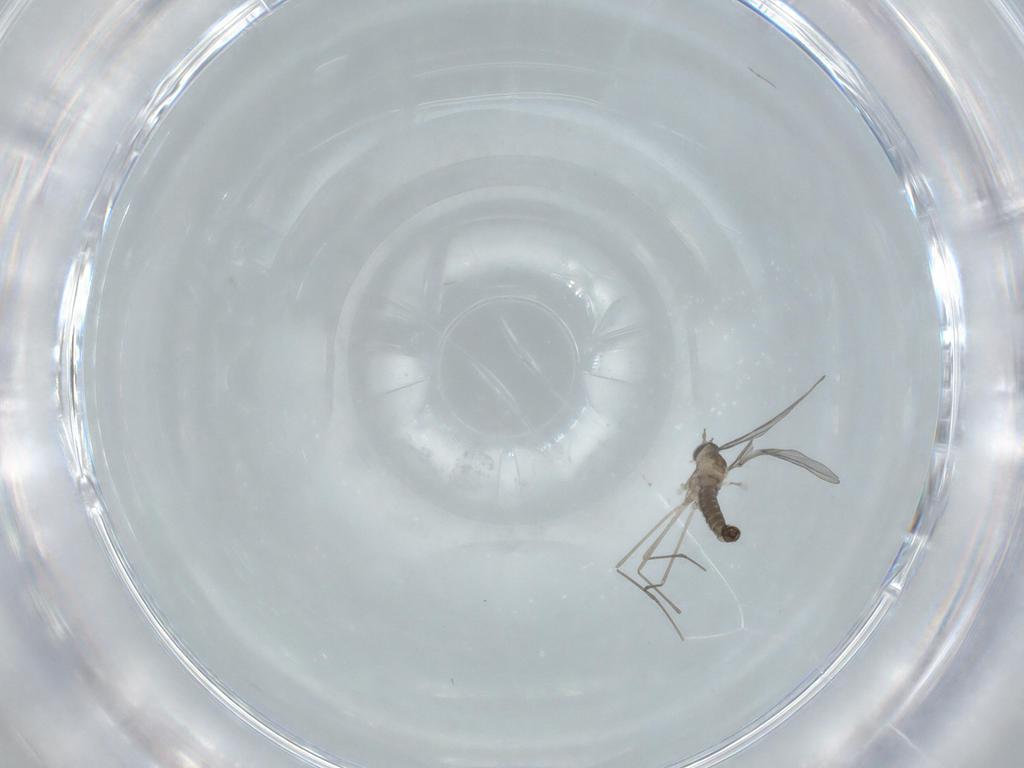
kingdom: Animalia
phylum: Arthropoda
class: Insecta
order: Diptera
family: Cecidomyiidae
